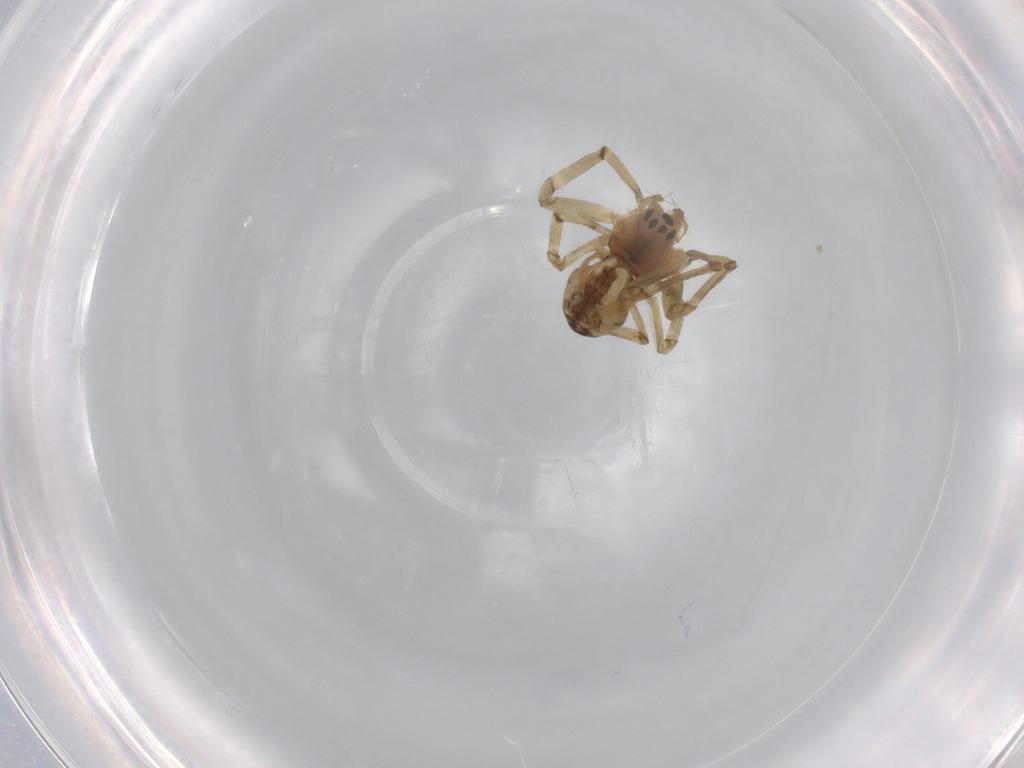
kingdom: Animalia
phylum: Arthropoda
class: Arachnida
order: Araneae
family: Linyphiidae
